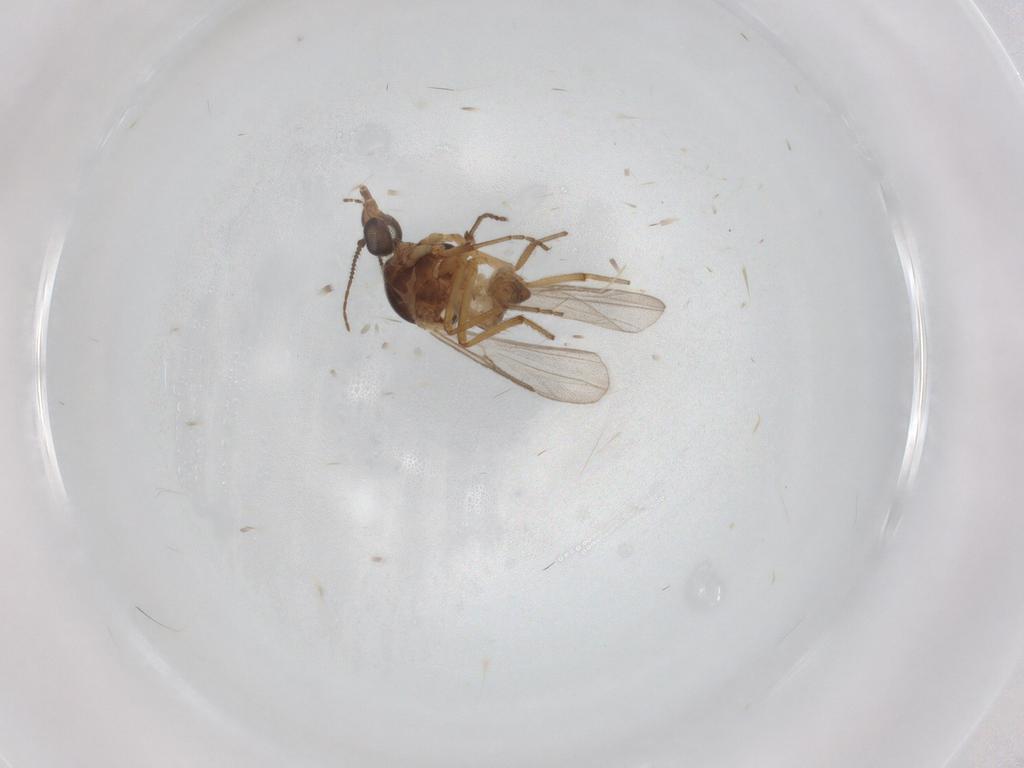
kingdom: Animalia
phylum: Arthropoda
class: Insecta
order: Diptera
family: Ceratopogonidae
